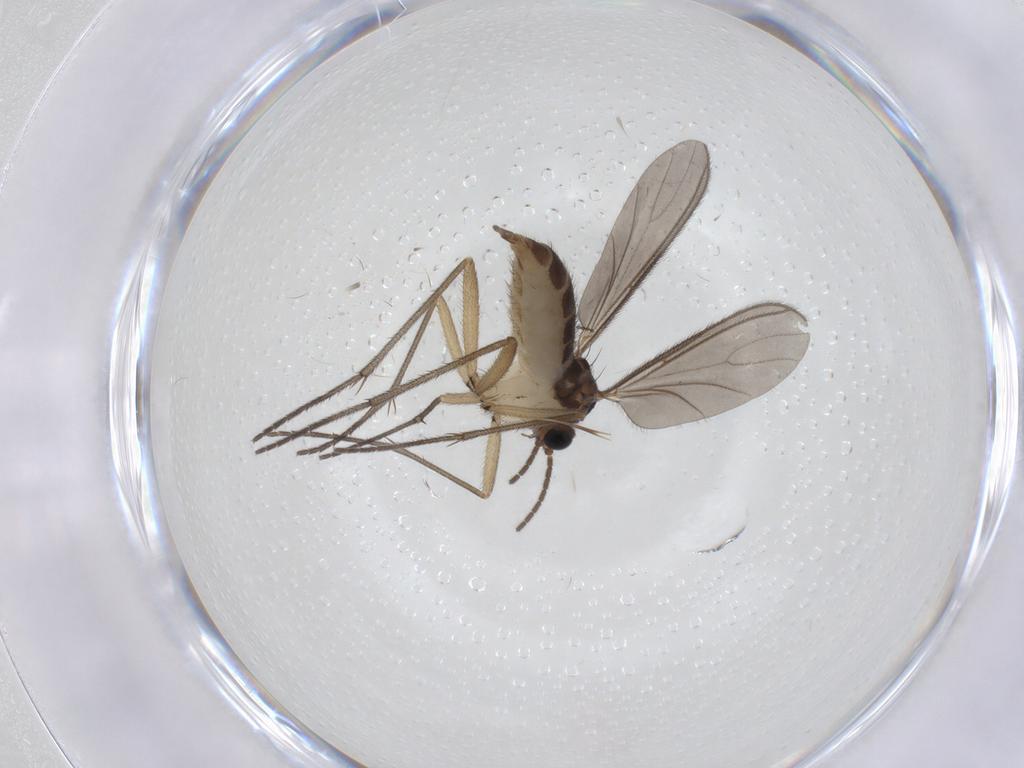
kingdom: Animalia
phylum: Arthropoda
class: Insecta
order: Diptera
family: Sciaridae
